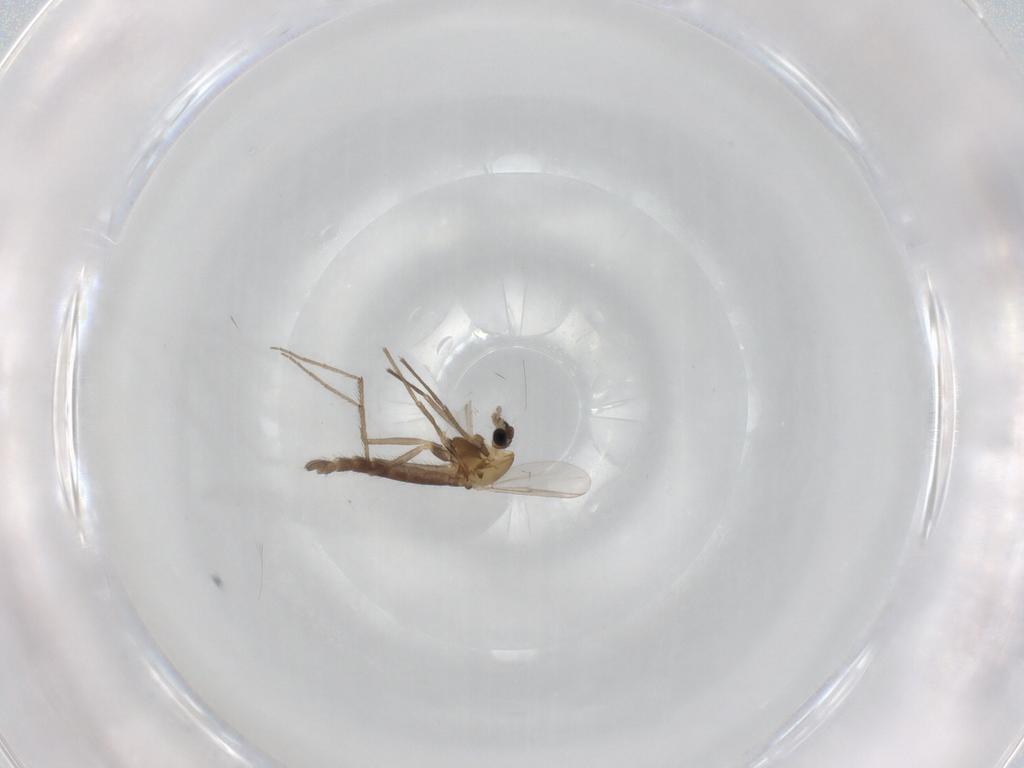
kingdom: Animalia
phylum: Arthropoda
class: Insecta
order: Diptera
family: Chironomidae
